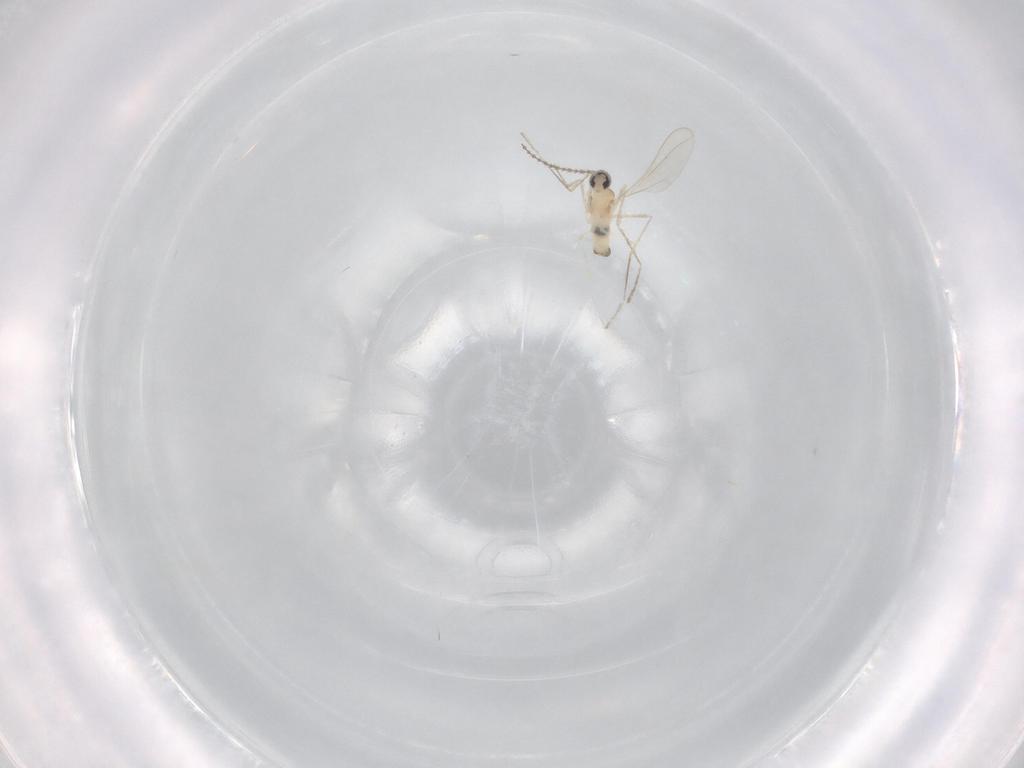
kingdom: Animalia
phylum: Arthropoda
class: Insecta
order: Diptera
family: Cecidomyiidae
